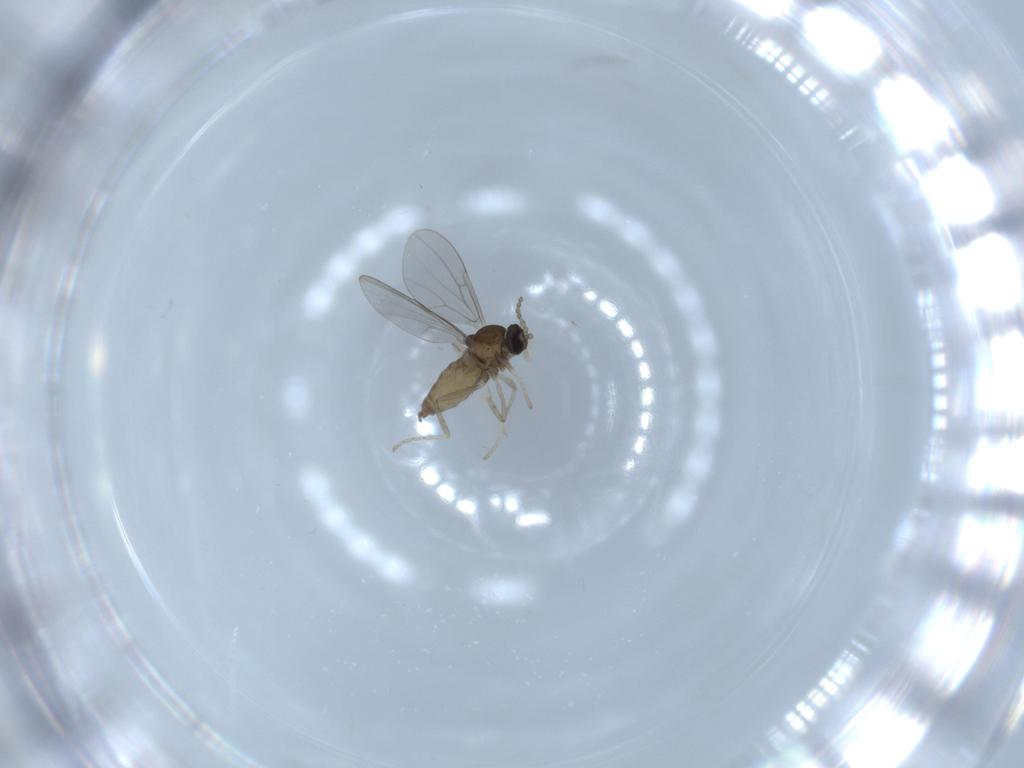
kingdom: Animalia
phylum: Arthropoda
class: Insecta
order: Diptera
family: Cecidomyiidae
